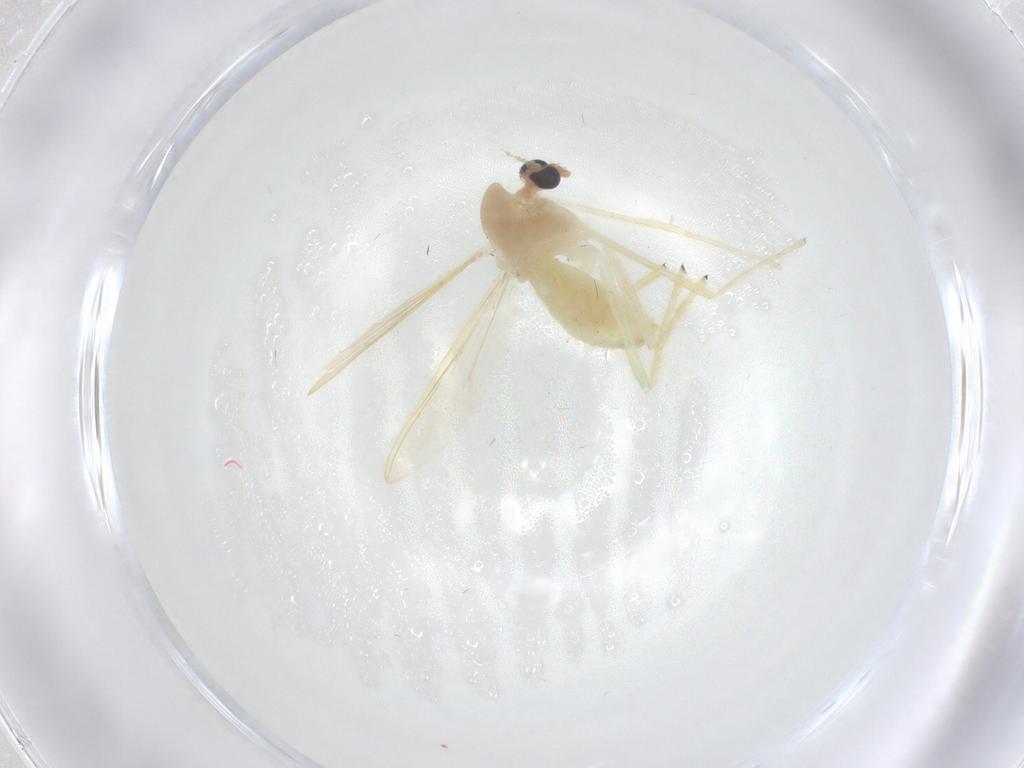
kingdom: Animalia
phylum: Arthropoda
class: Insecta
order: Diptera
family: Chironomidae
